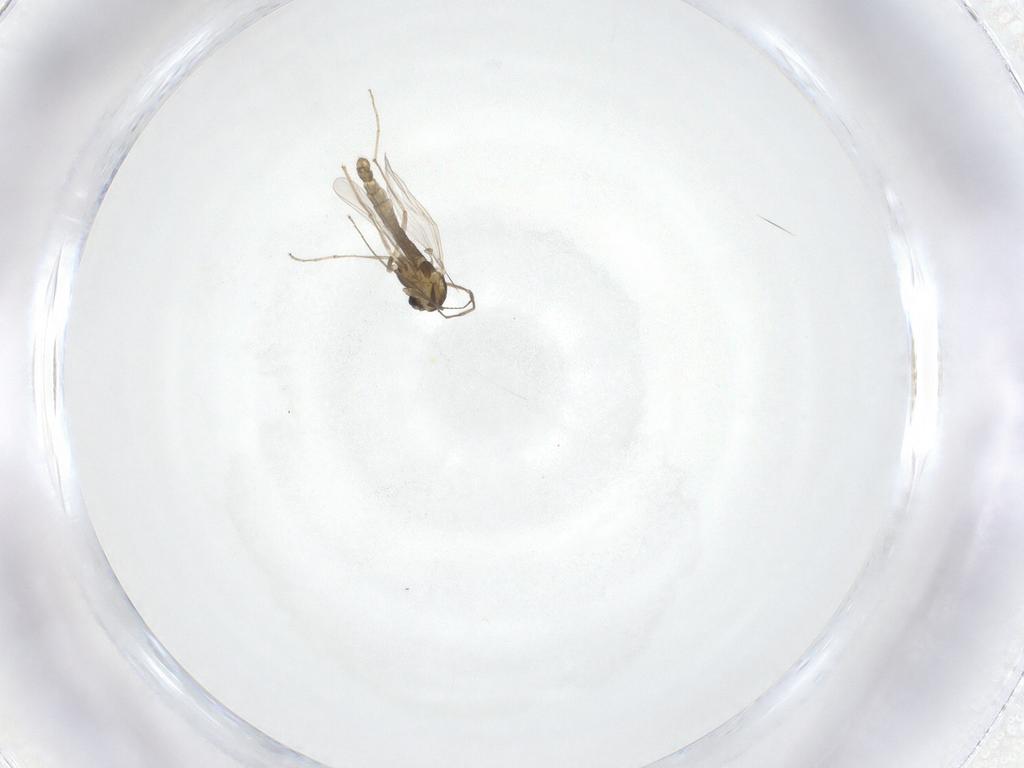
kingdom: Animalia
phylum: Arthropoda
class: Insecta
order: Diptera
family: Chironomidae
